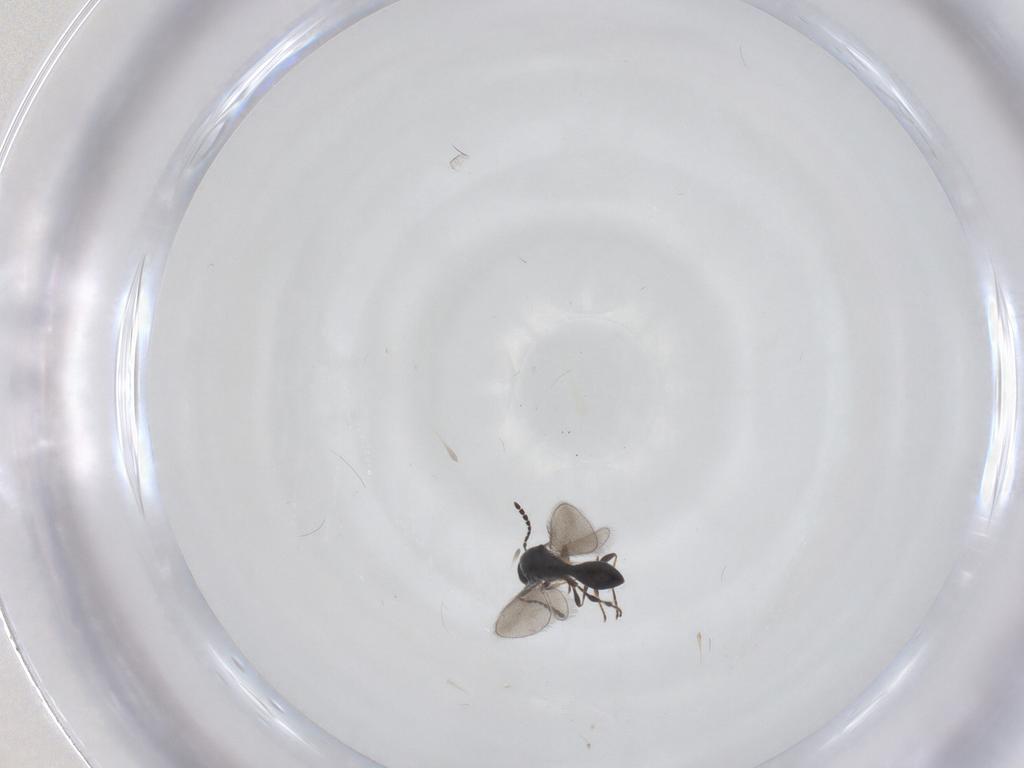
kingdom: Animalia
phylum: Arthropoda
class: Insecta
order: Hymenoptera
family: Platygastridae
